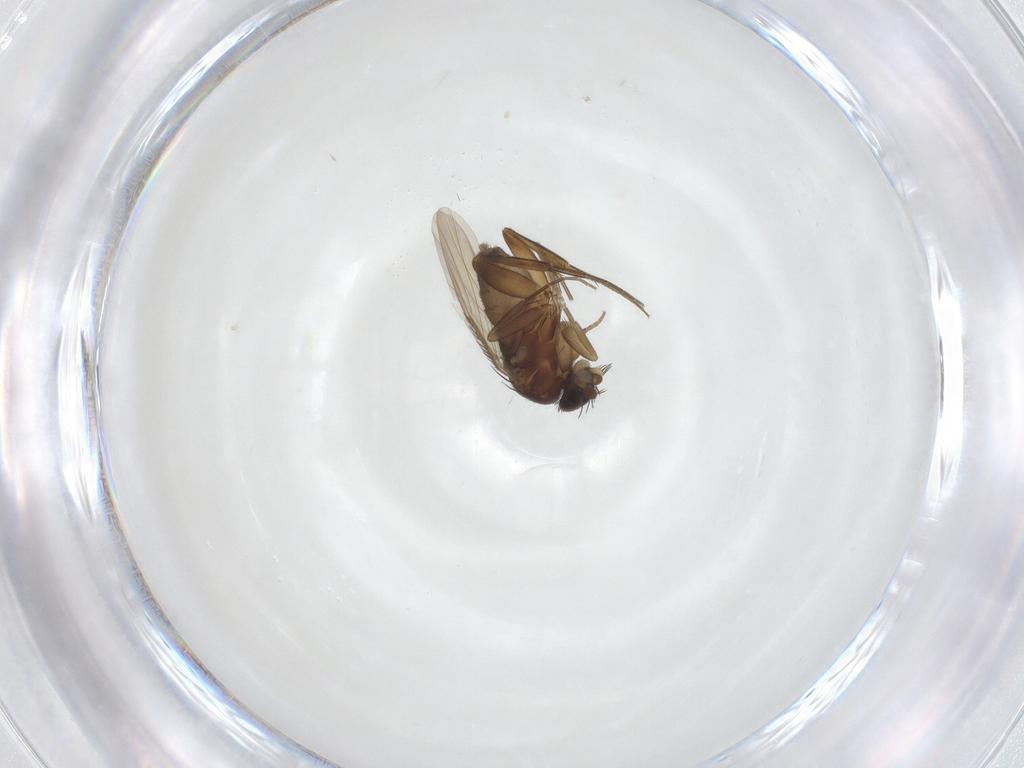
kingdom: Animalia
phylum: Arthropoda
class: Insecta
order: Diptera
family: Phoridae
